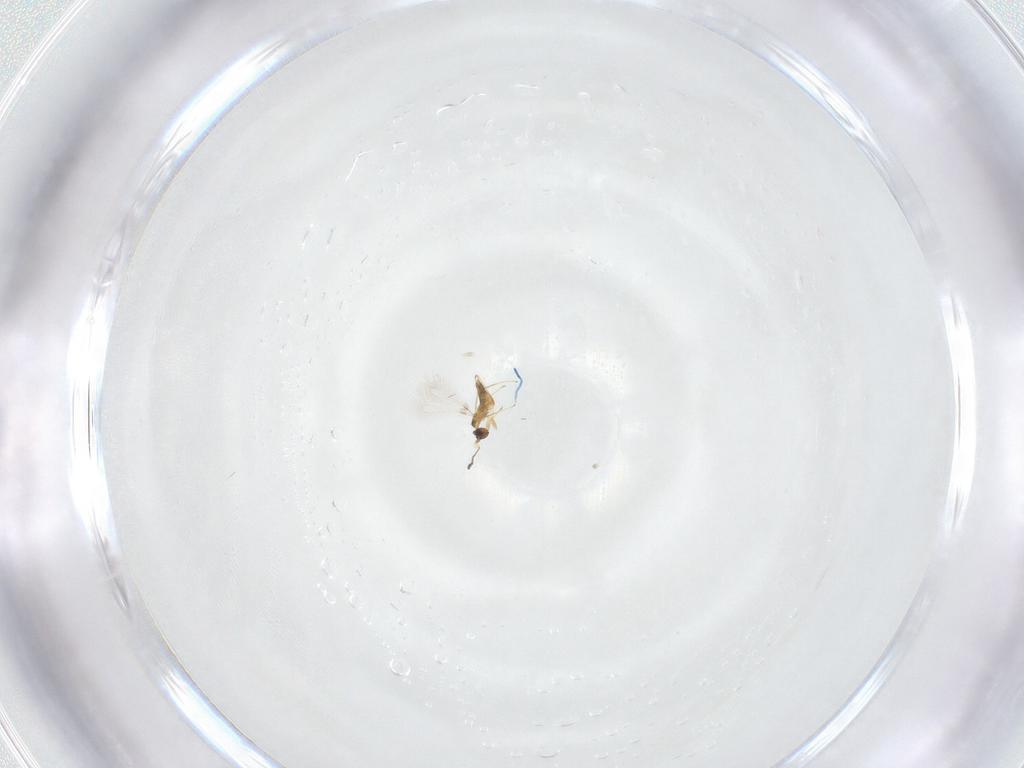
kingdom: Animalia
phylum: Arthropoda
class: Insecta
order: Hymenoptera
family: Mymaridae
